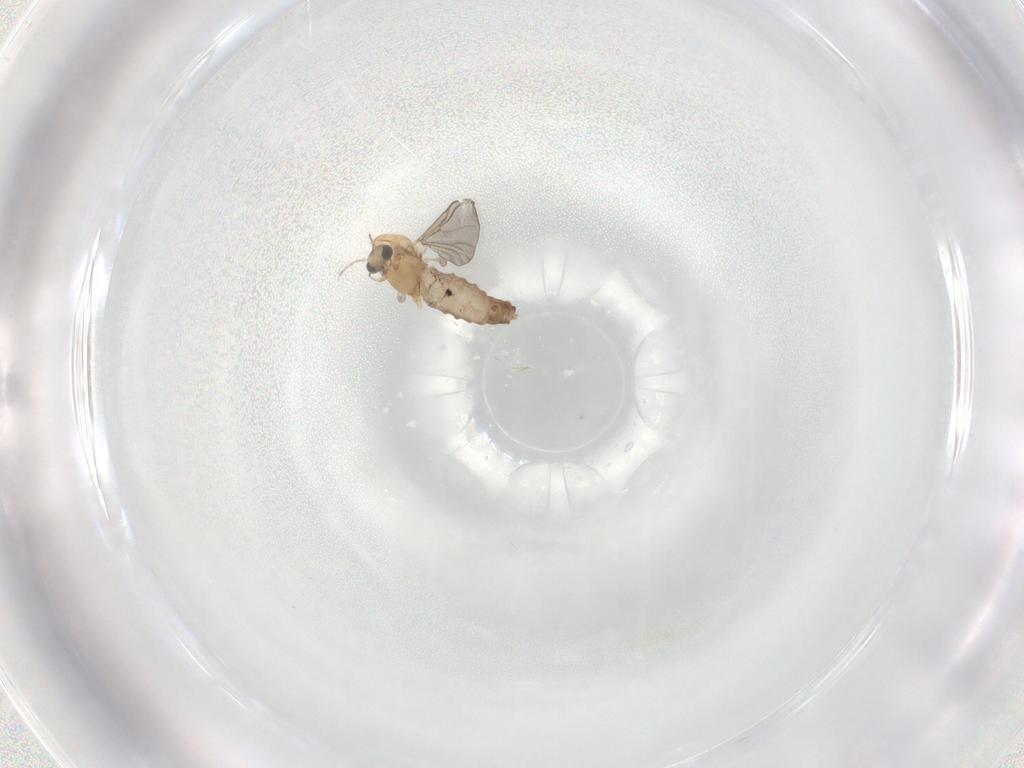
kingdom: Animalia
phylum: Arthropoda
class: Insecta
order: Diptera
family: Chironomidae
